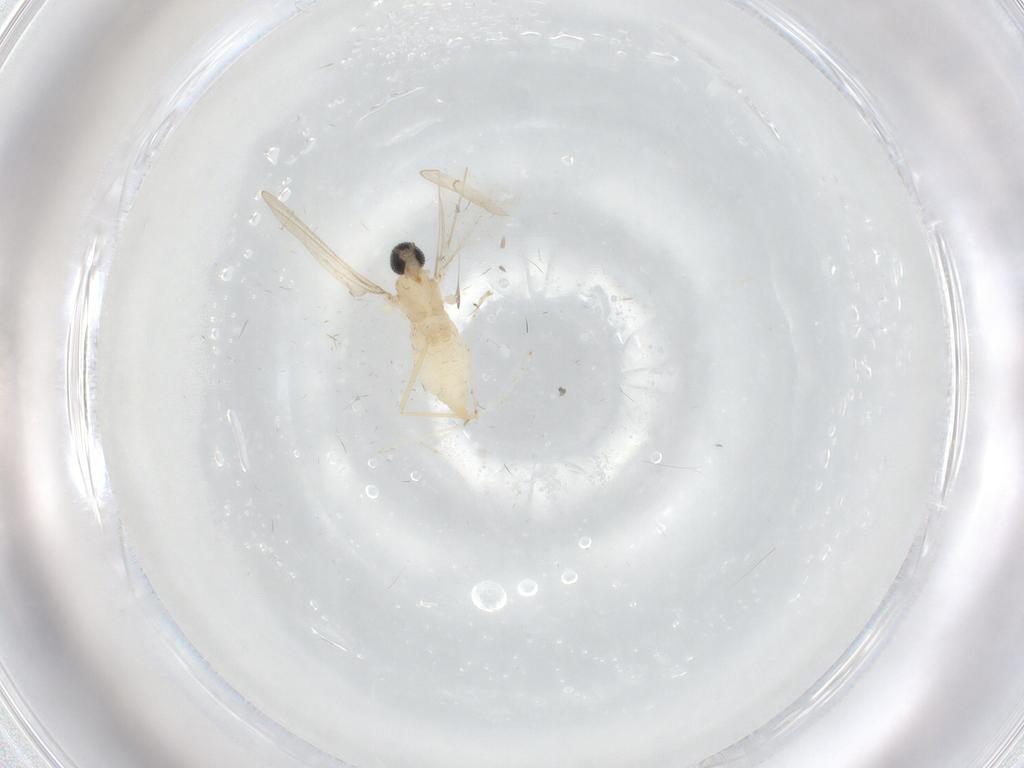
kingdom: Animalia
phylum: Arthropoda
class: Insecta
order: Diptera
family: Cecidomyiidae
